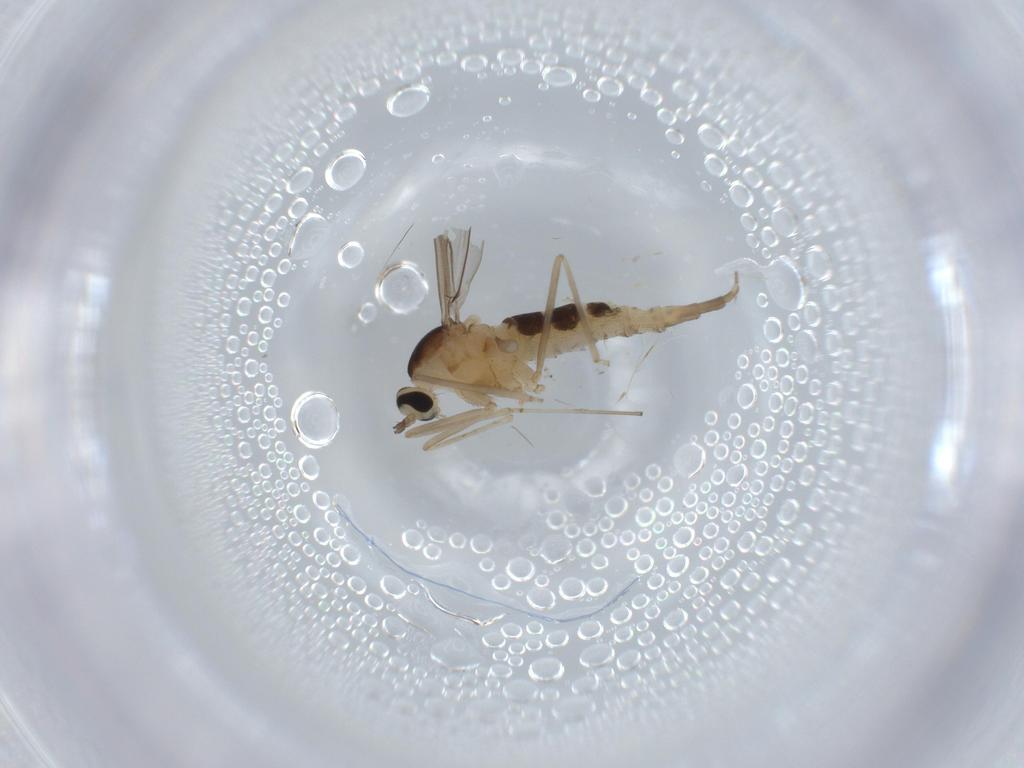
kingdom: Animalia
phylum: Arthropoda
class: Insecta
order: Diptera
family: Cecidomyiidae
